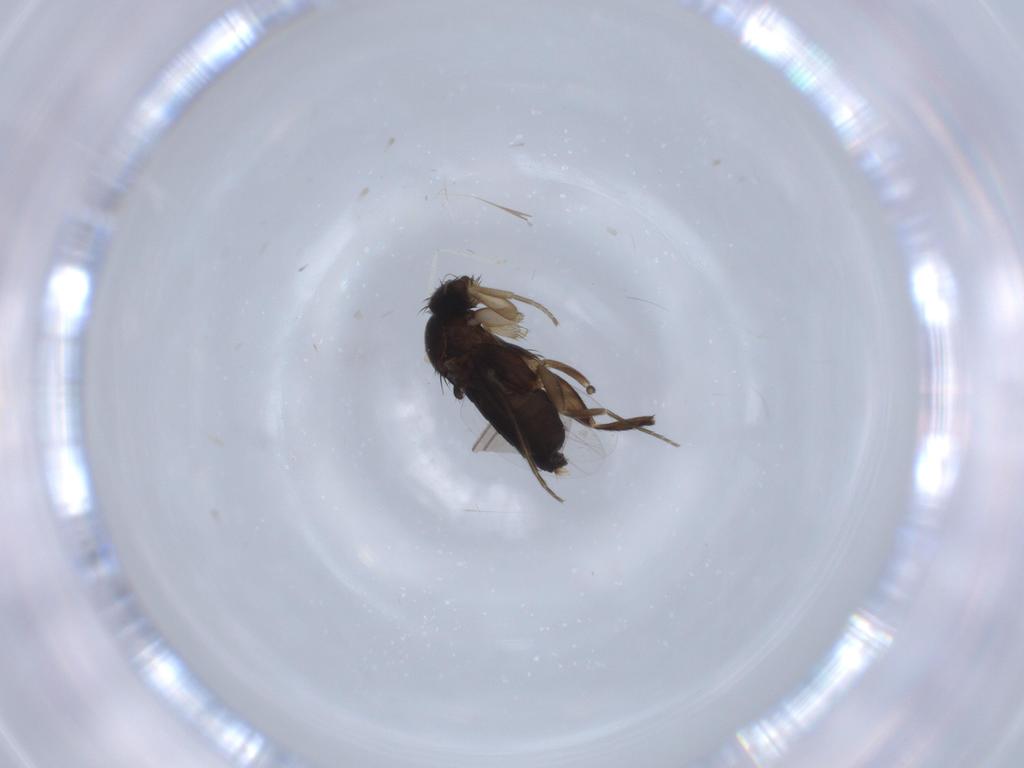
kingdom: Animalia
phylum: Arthropoda
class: Insecta
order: Diptera
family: Phoridae
